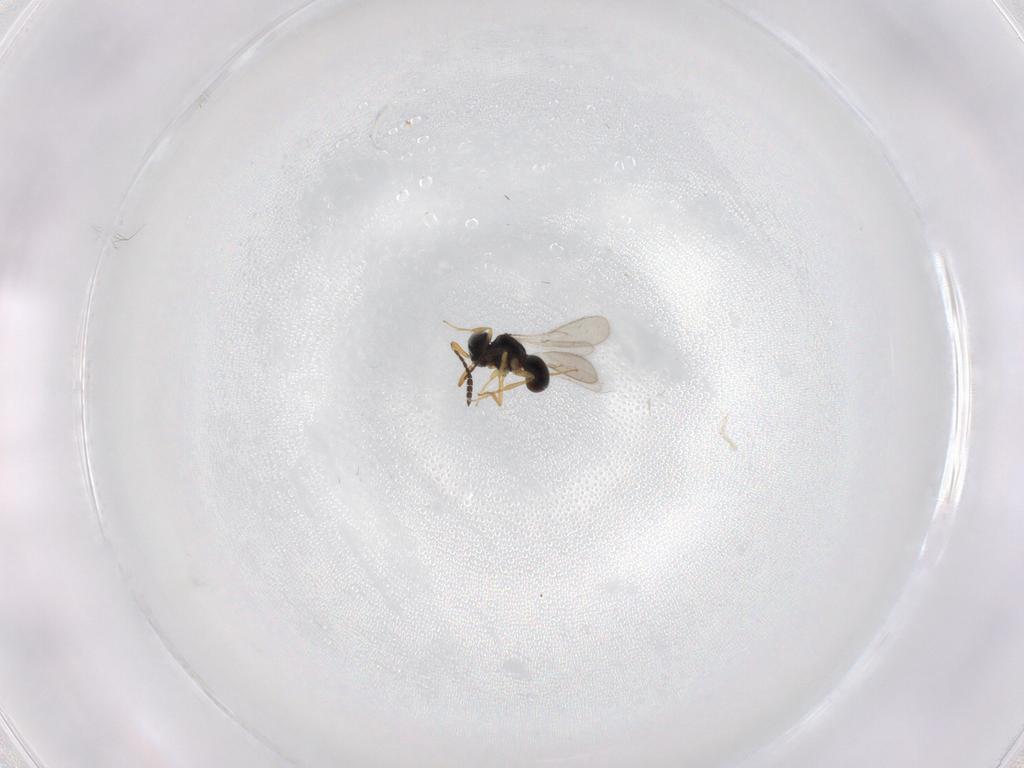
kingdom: Animalia
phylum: Arthropoda
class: Insecta
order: Hymenoptera
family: Scelionidae
